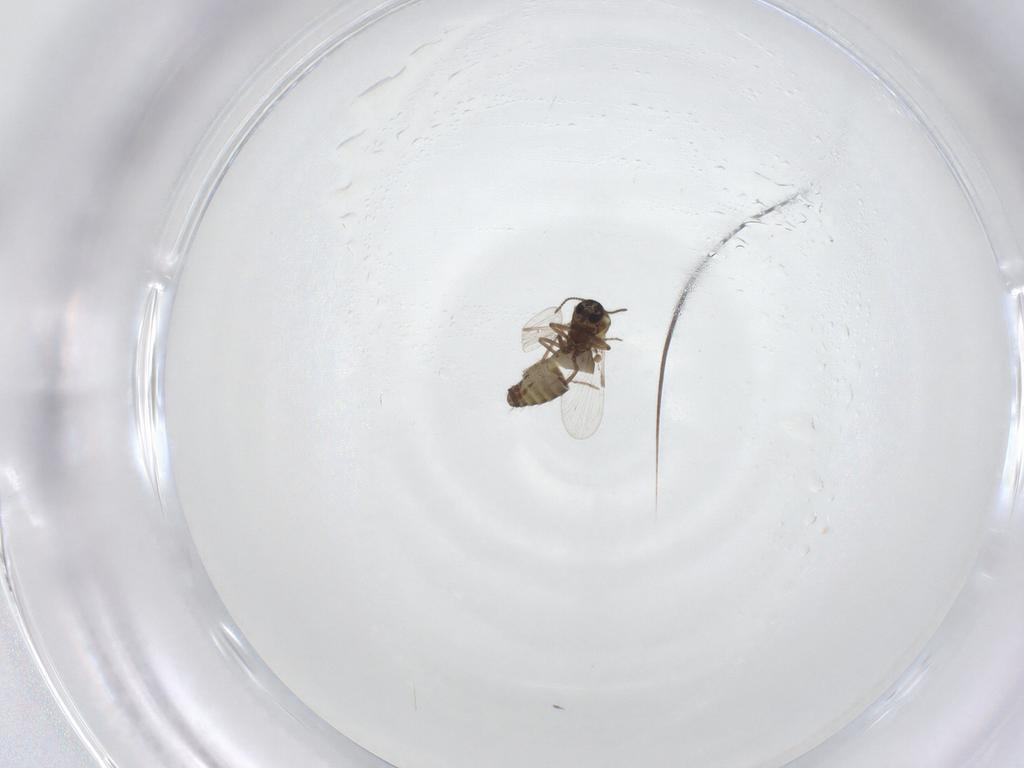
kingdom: Animalia
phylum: Arthropoda
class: Insecta
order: Diptera
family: Ceratopogonidae
